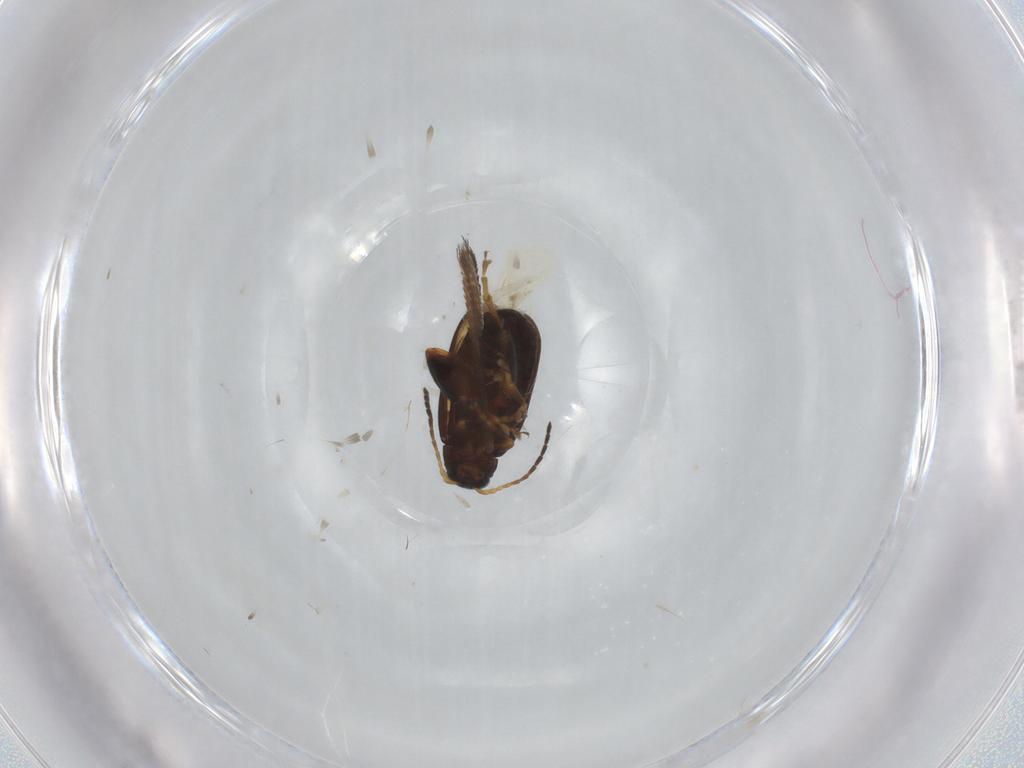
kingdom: Animalia
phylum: Arthropoda
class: Insecta
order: Coleoptera
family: Chrysomelidae
